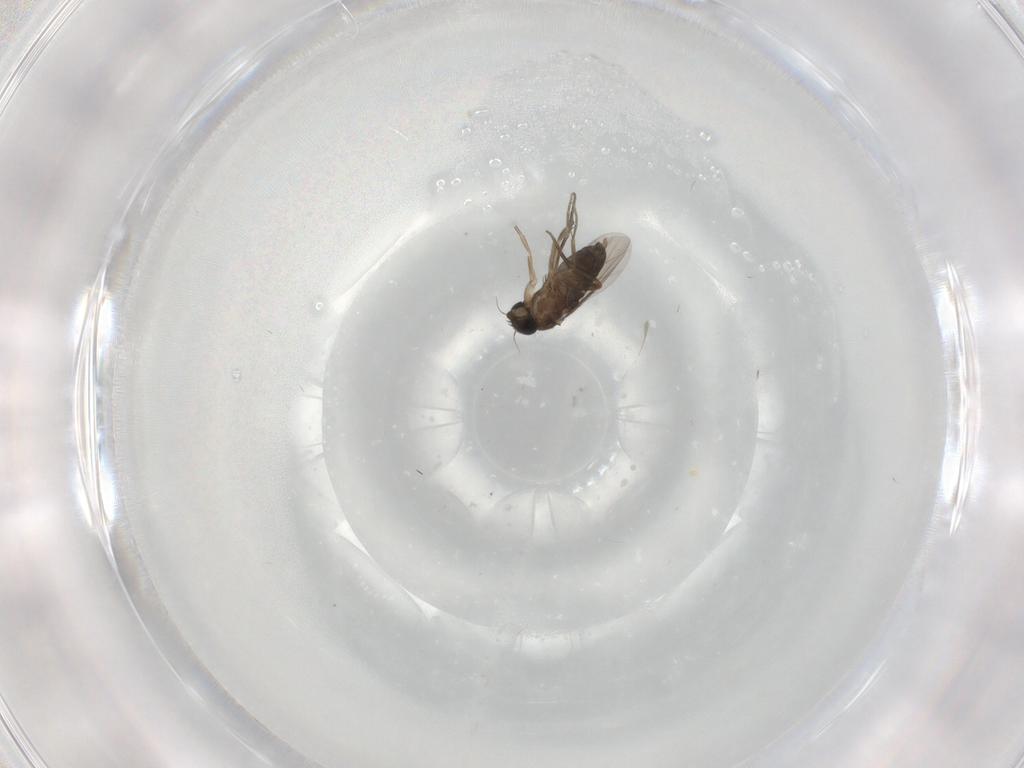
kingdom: Animalia
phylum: Arthropoda
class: Insecta
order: Diptera
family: Phoridae
